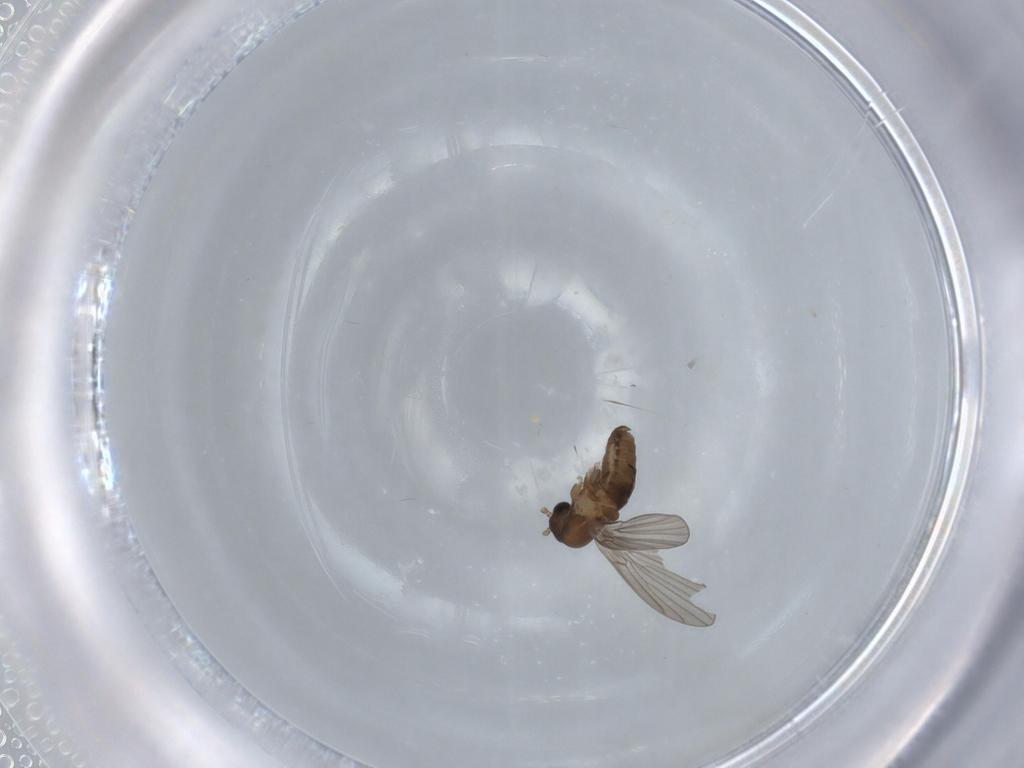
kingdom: Animalia
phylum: Arthropoda
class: Insecta
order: Diptera
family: Psychodidae
